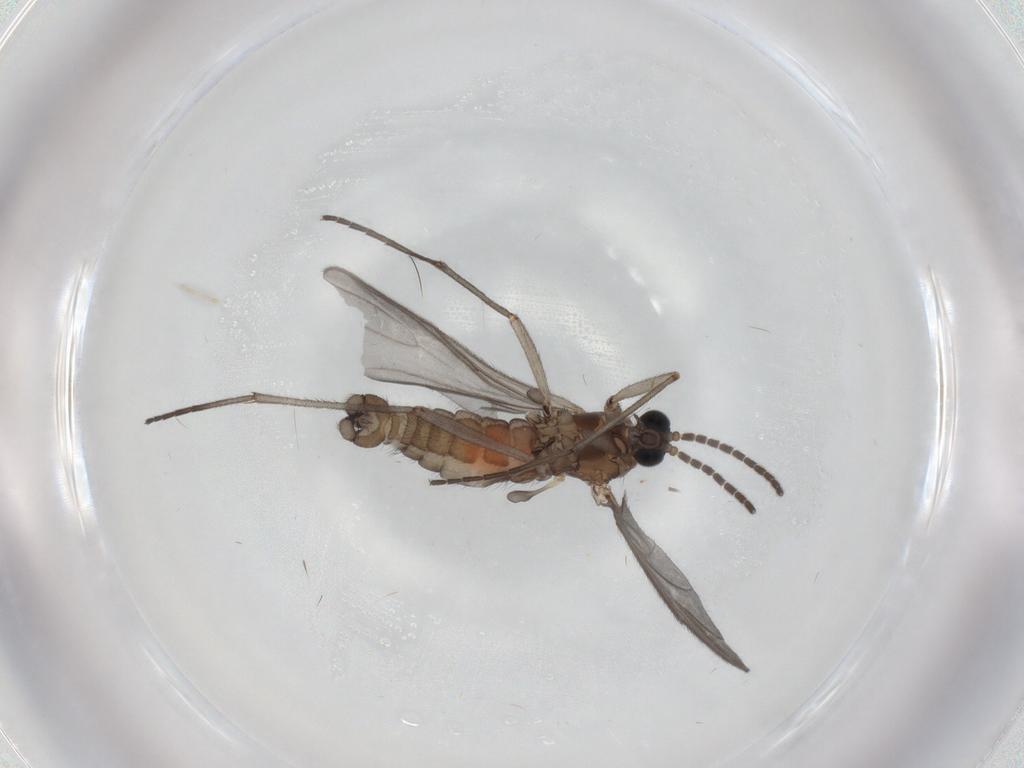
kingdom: Animalia
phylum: Arthropoda
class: Insecta
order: Diptera
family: Sciaridae
